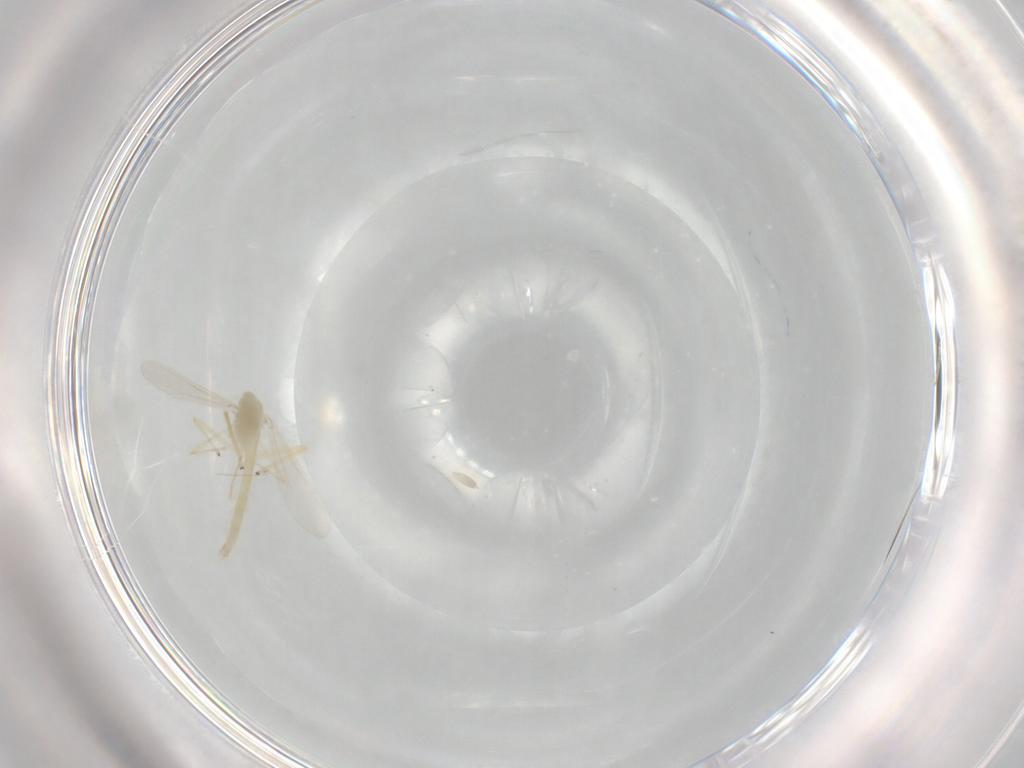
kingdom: Animalia
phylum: Arthropoda
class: Insecta
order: Diptera
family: Chironomidae
